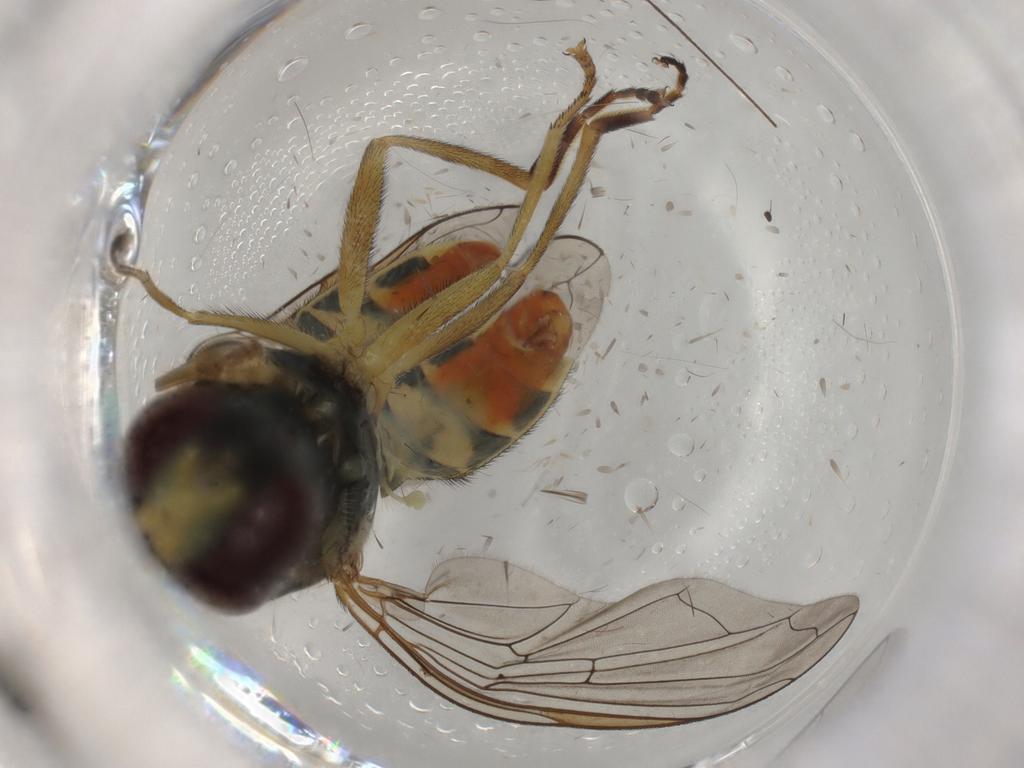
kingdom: Animalia
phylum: Arthropoda
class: Insecta
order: Diptera
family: Syrphidae
